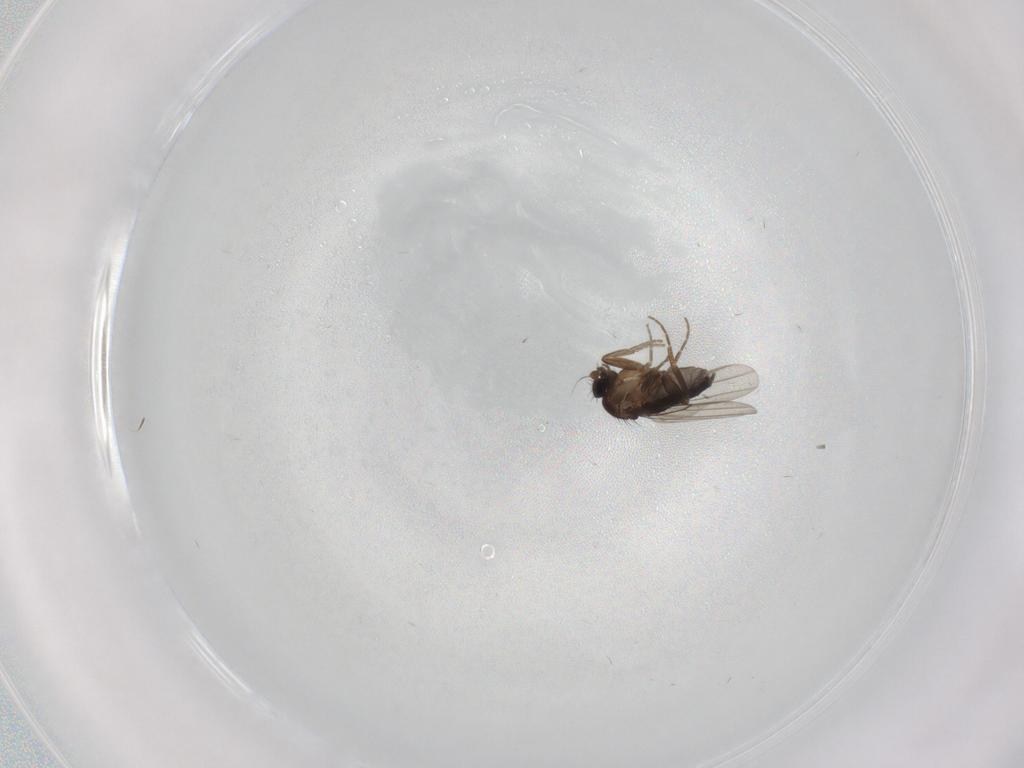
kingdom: Animalia
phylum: Arthropoda
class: Insecta
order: Diptera
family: Phoridae
